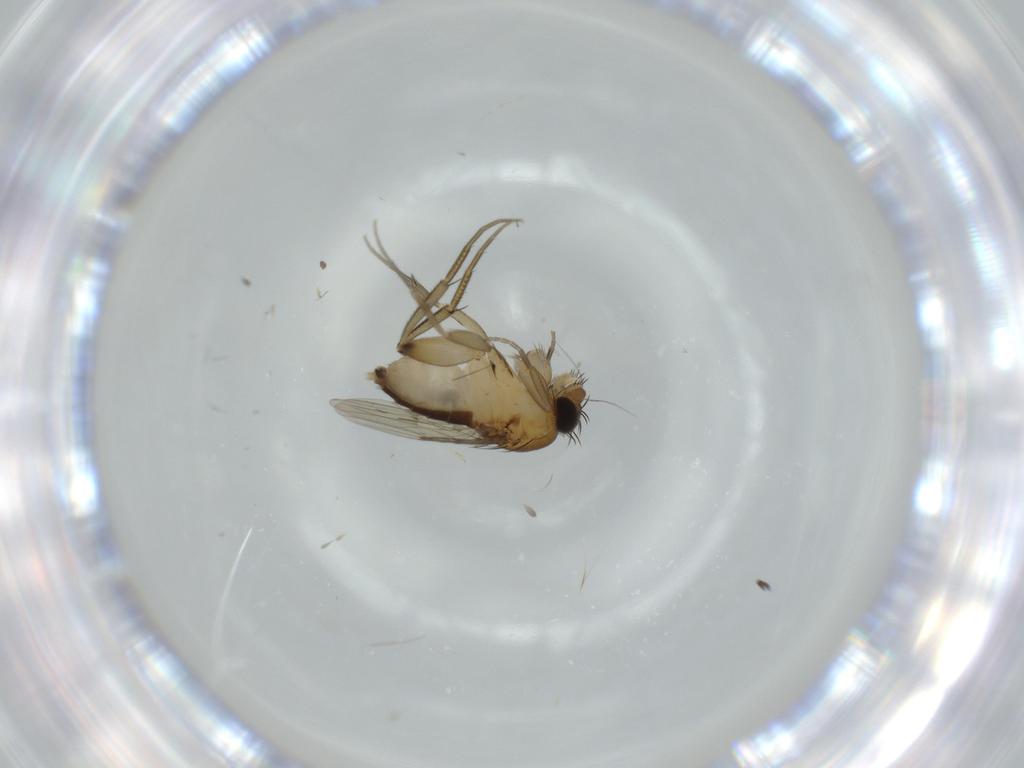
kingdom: Animalia
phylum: Arthropoda
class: Insecta
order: Diptera
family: Phoridae
